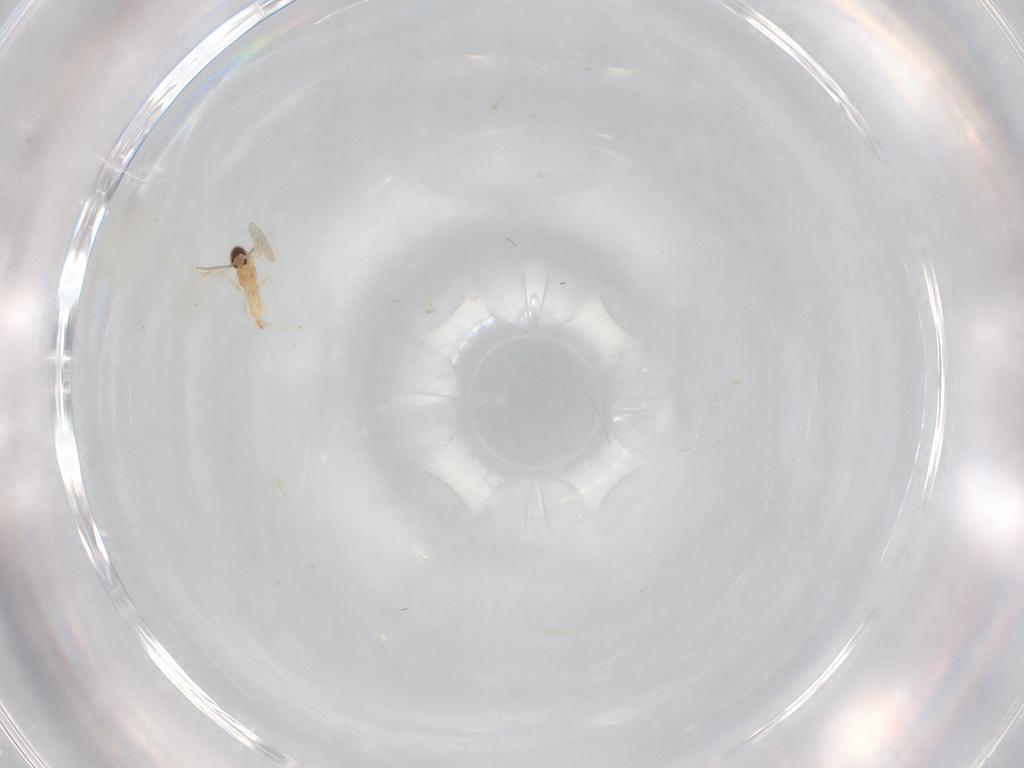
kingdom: Animalia
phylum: Arthropoda
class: Insecta
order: Diptera
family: Cecidomyiidae
